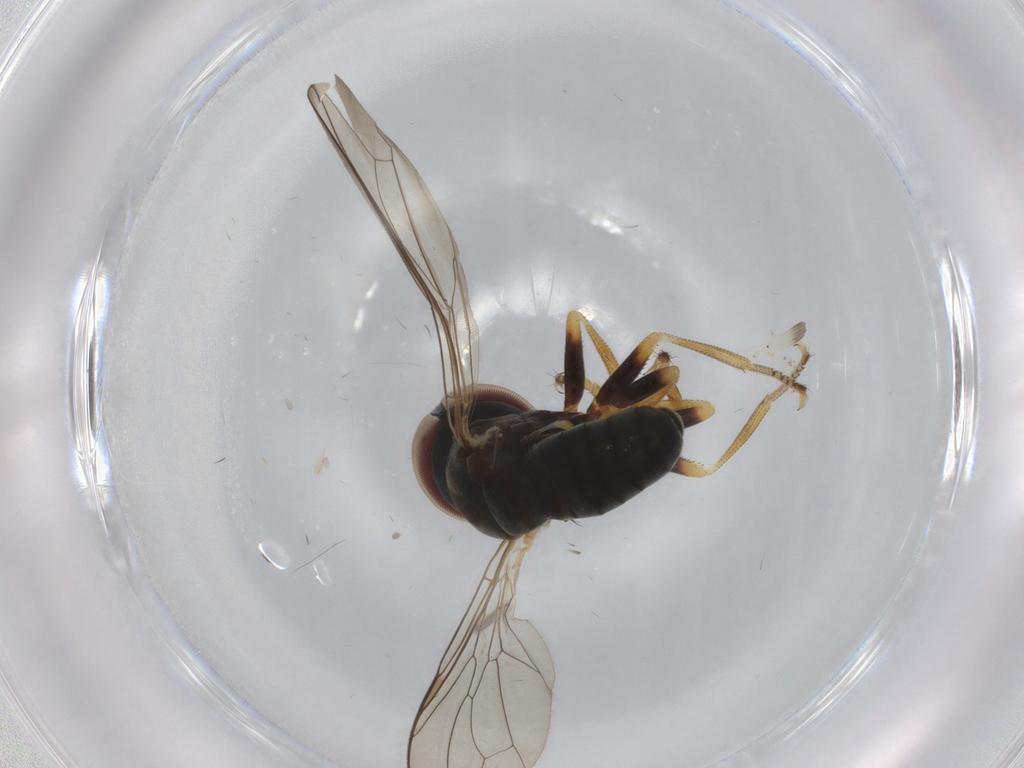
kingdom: Animalia
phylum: Arthropoda
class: Insecta
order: Diptera
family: Pipunculidae
